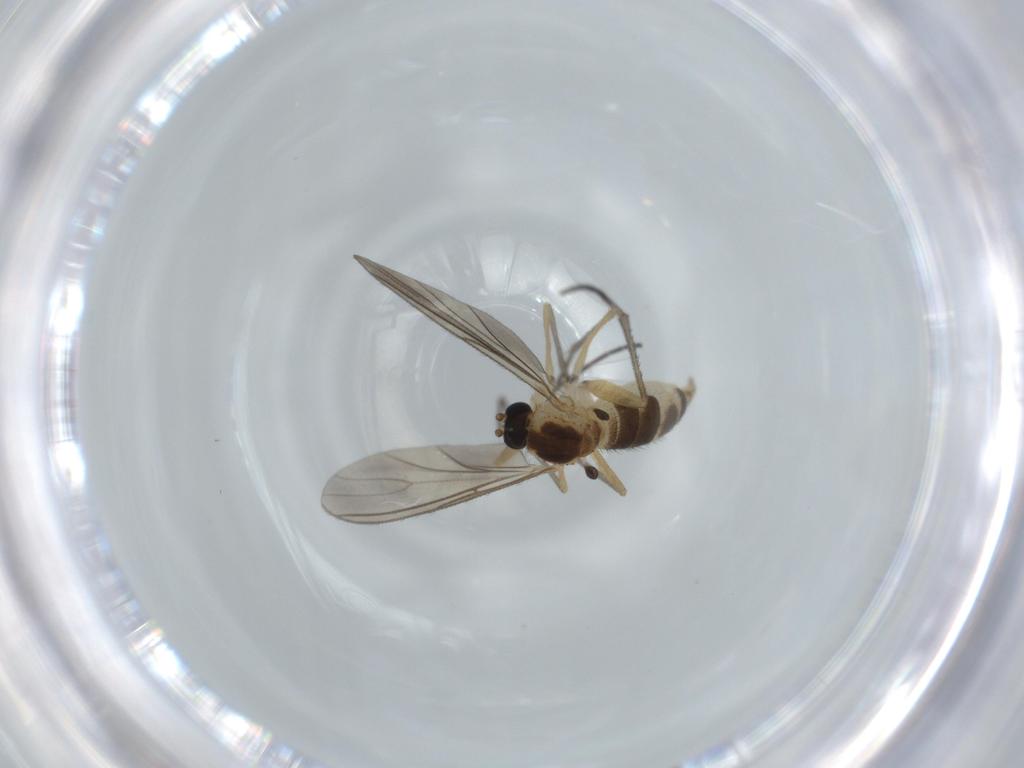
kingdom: Animalia
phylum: Arthropoda
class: Insecta
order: Diptera
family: Sciaridae
